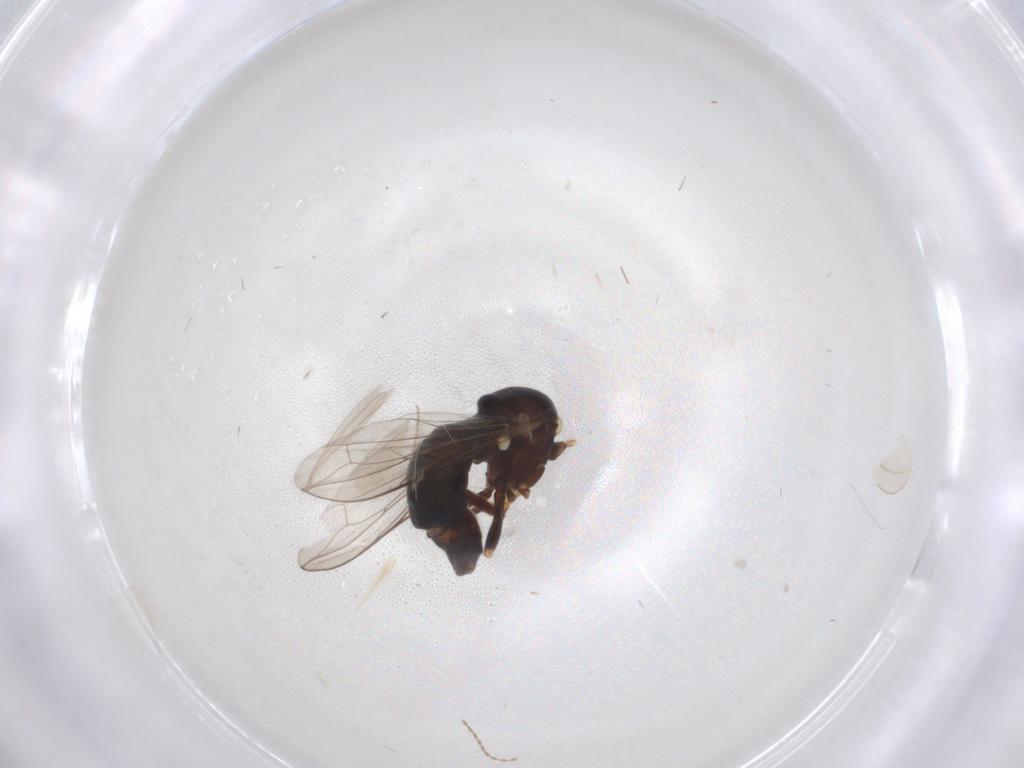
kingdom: Animalia
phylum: Arthropoda
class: Insecta
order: Diptera
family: Cecidomyiidae
